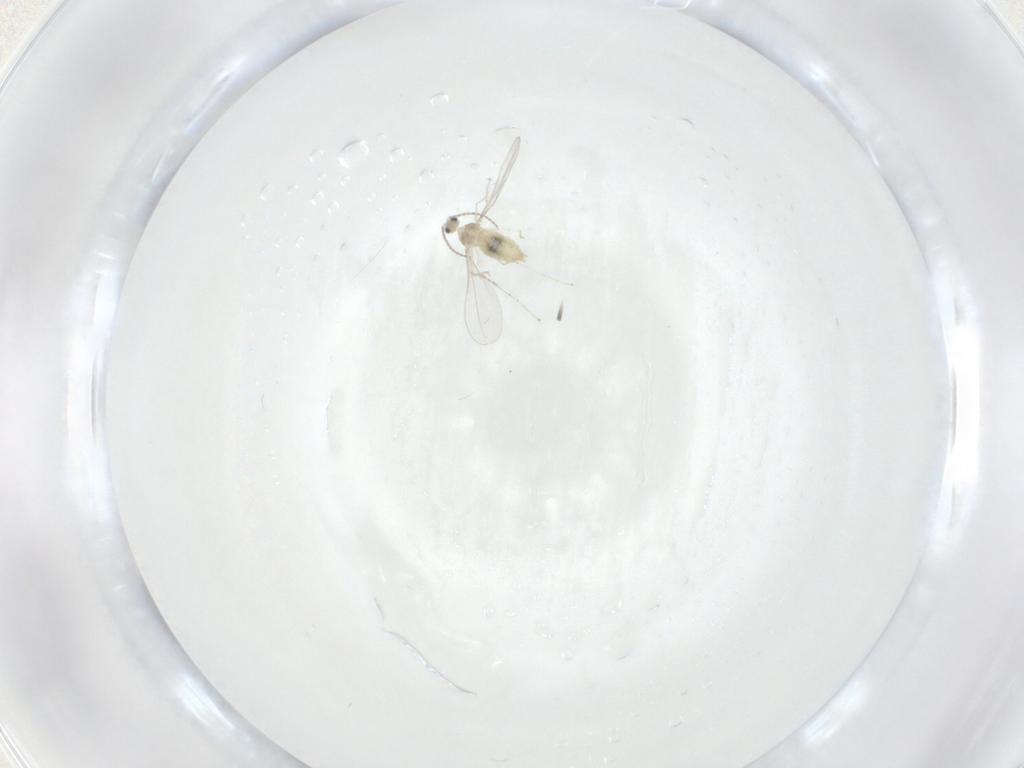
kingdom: Animalia
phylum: Arthropoda
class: Insecta
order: Diptera
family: Cecidomyiidae
